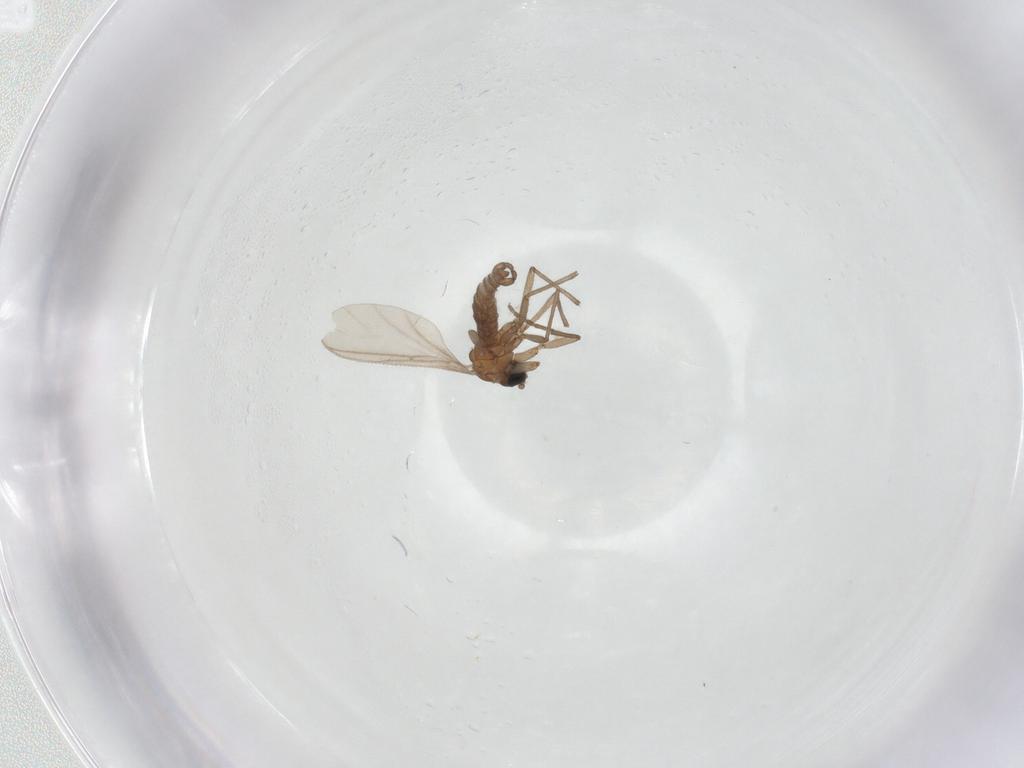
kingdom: Animalia
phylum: Arthropoda
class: Insecta
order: Diptera
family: Sciaridae
